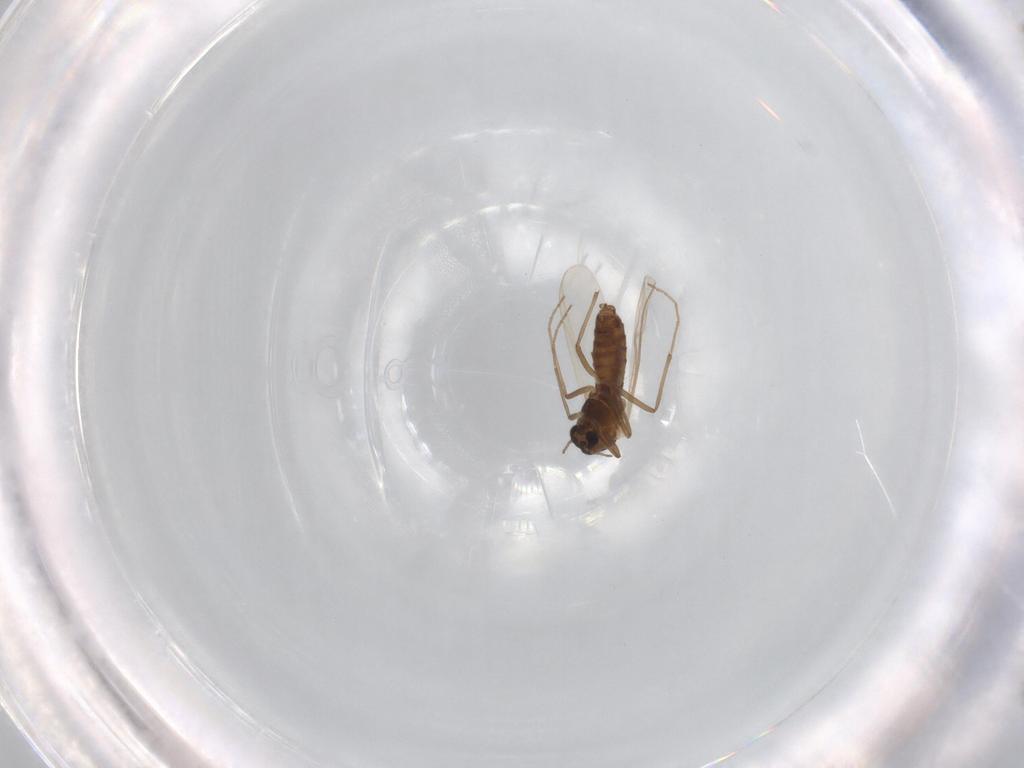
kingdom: Animalia
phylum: Arthropoda
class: Insecta
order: Diptera
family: Chironomidae
